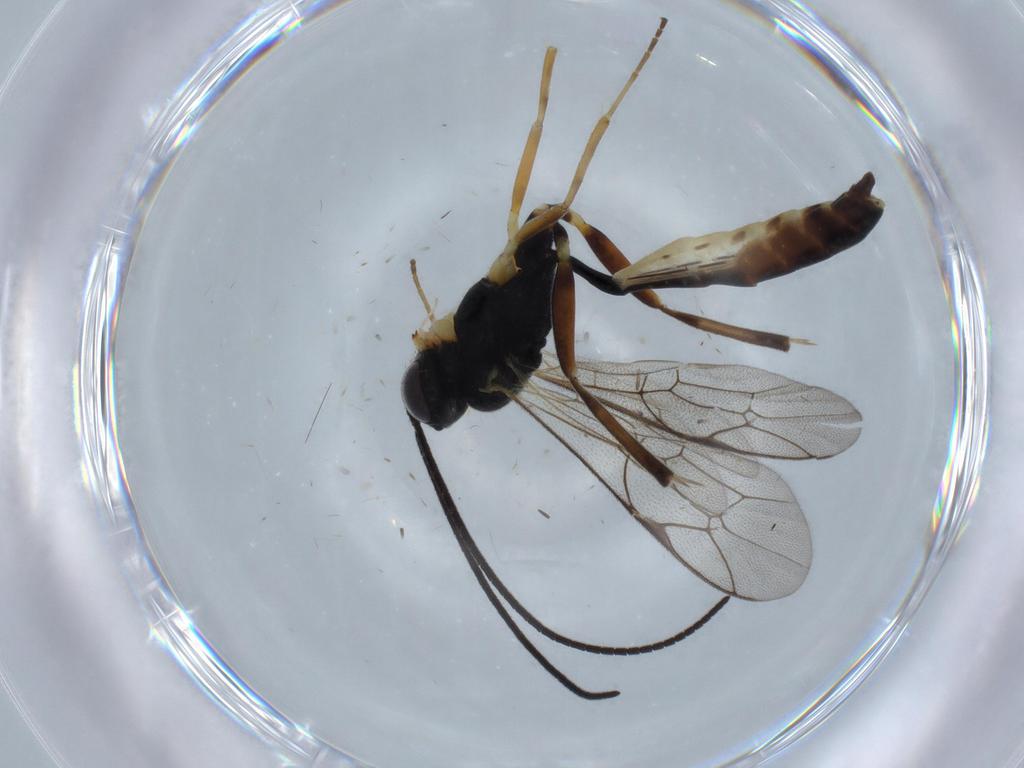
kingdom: Animalia
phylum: Arthropoda
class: Insecta
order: Hymenoptera
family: Ichneumonidae
